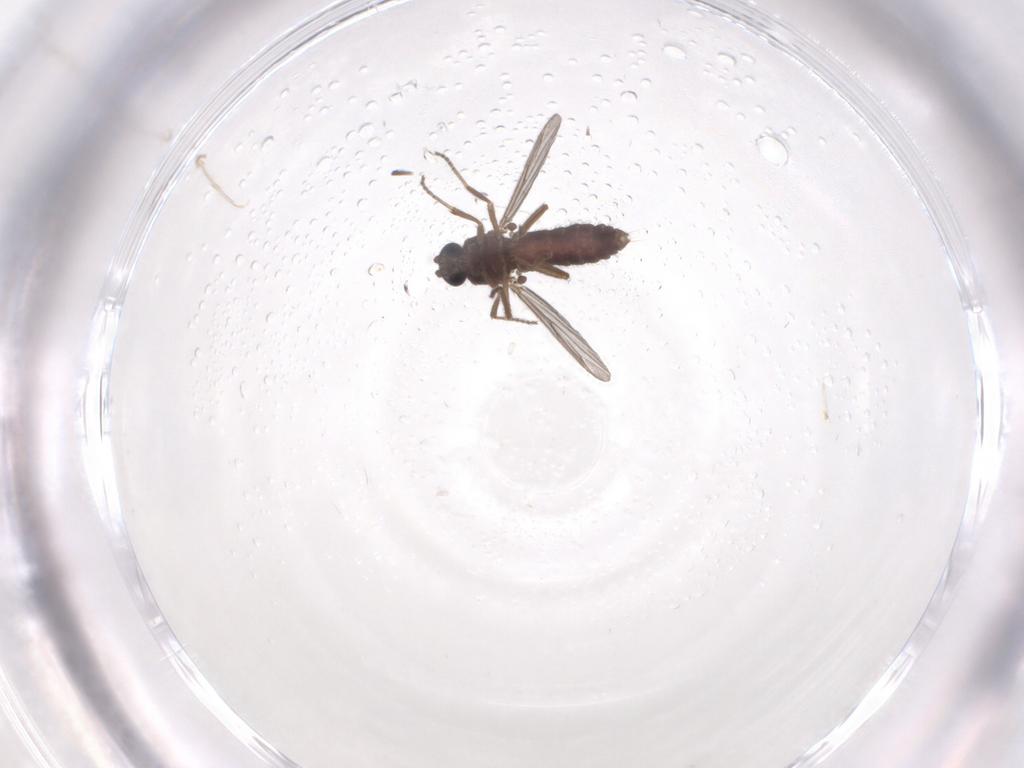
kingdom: Animalia
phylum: Arthropoda
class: Insecta
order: Diptera
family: Ceratopogonidae
